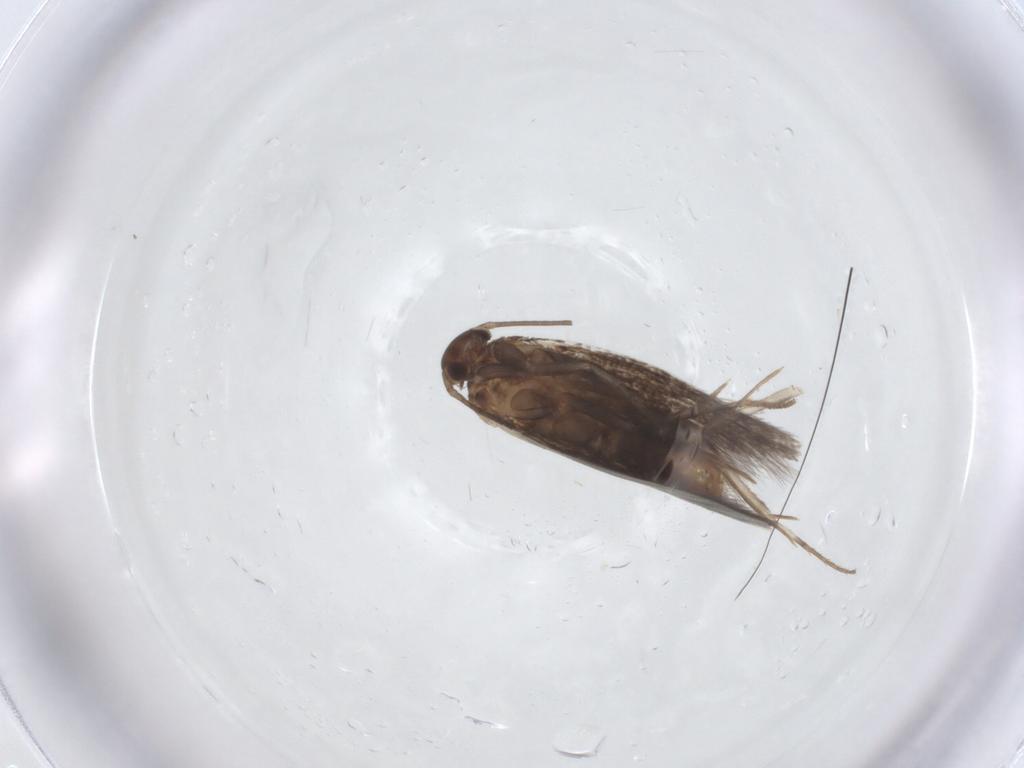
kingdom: Animalia
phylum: Arthropoda
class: Insecta
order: Lepidoptera
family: Elachistidae
